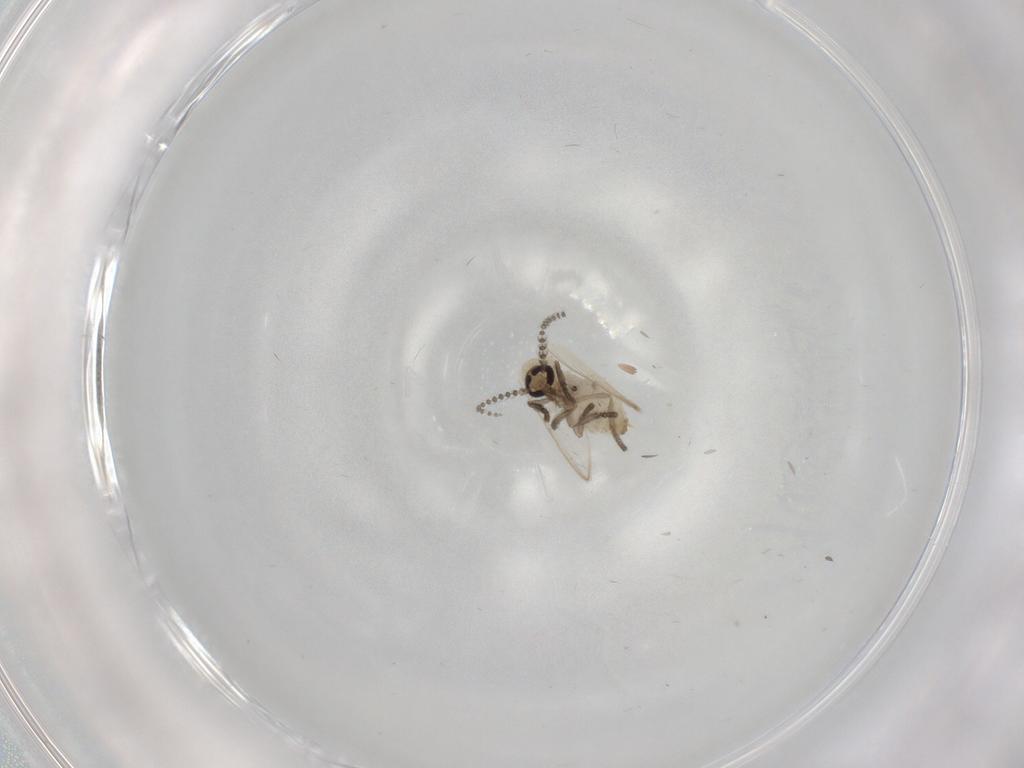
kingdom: Animalia
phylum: Arthropoda
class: Insecta
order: Diptera
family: Psychodidae
